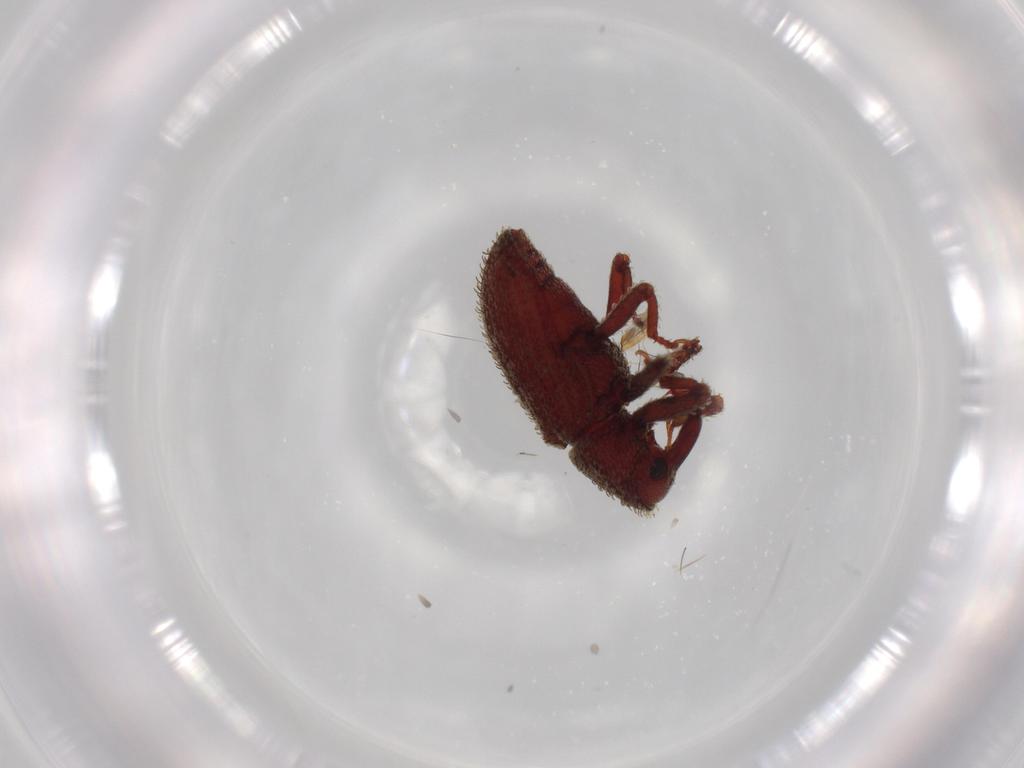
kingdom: Animalia
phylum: Arthropoda
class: Insecta
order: Coleoptera
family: Curculionidae
